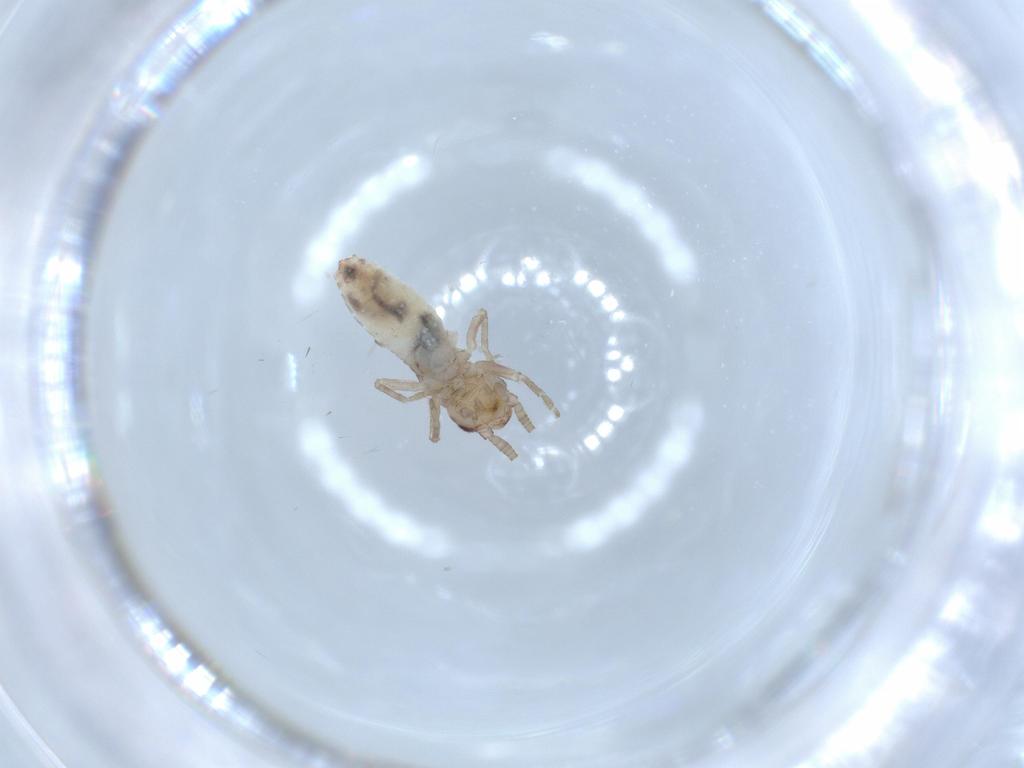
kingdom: Animalia
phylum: Arthropoda
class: Insecta
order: Orthoptera
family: Mogoplistidae
